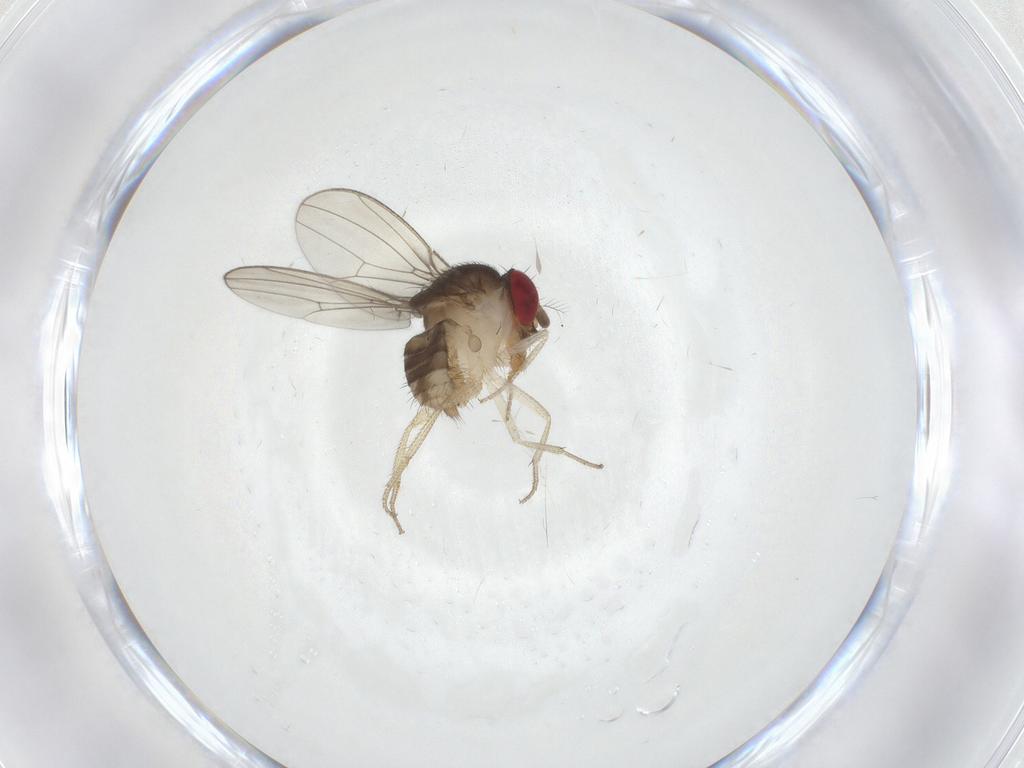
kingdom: Animalia
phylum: Arthropoda
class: Insecta
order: Diptera
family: Drosophilidae
